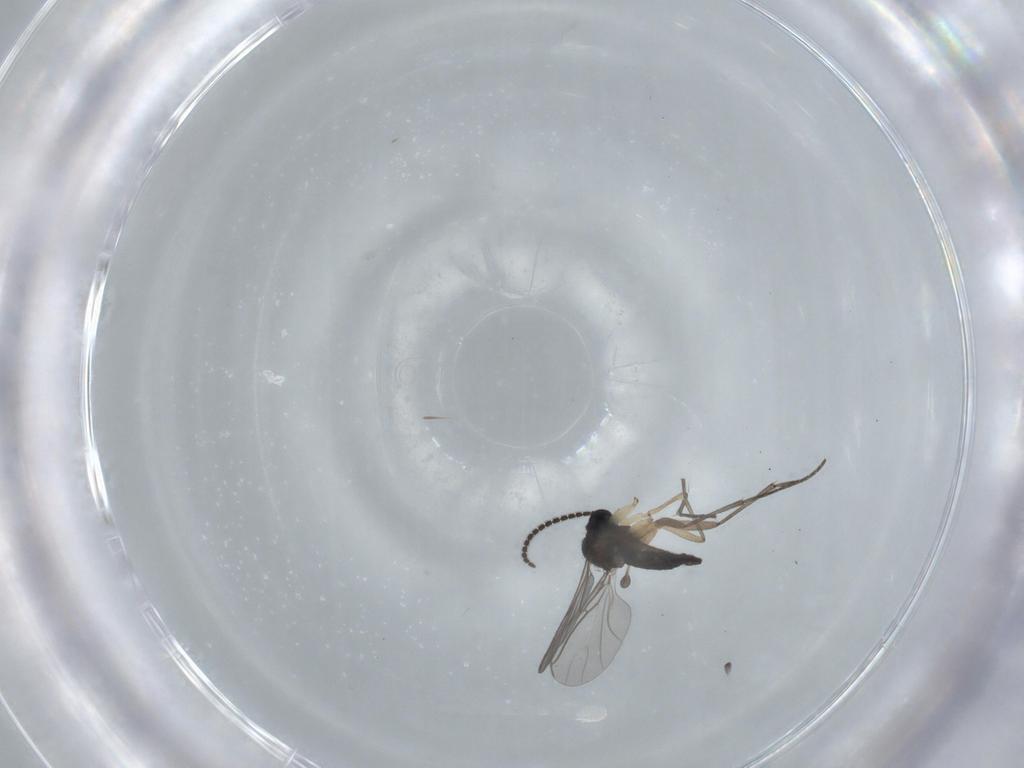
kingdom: Animalia
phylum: Arthropoda
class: Insecta
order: Diptera
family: Sciaridae
